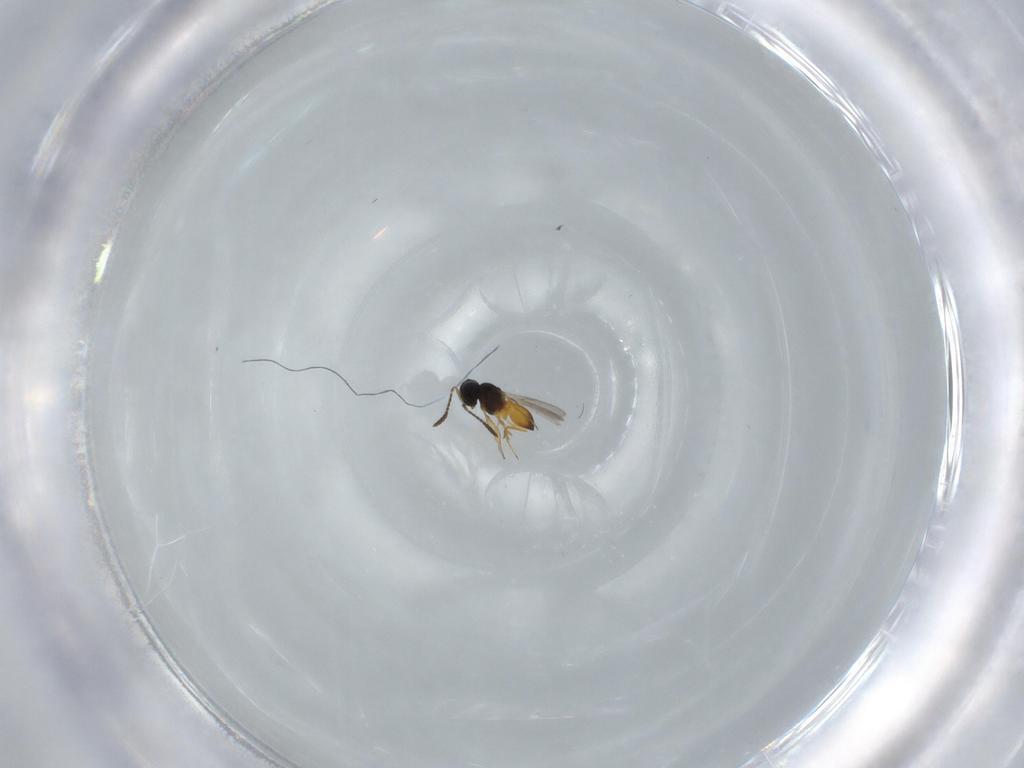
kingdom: Animalia
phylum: Arthropoda
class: Insecta
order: Hymenoptera
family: Scelionidae
